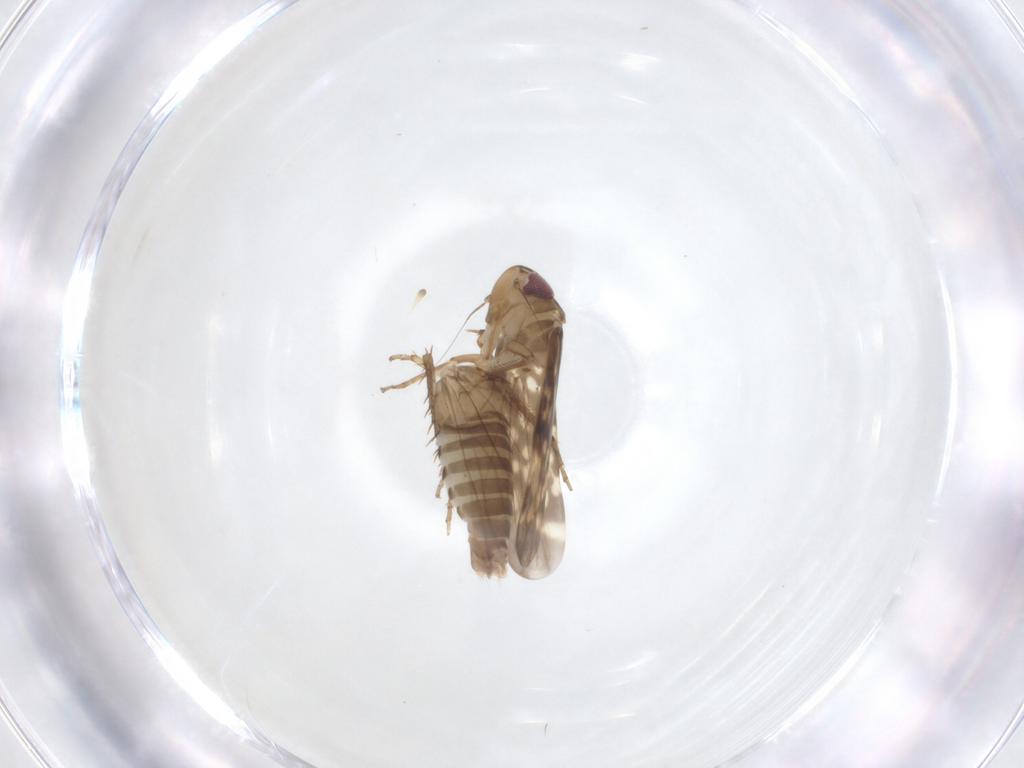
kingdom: Animalia
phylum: Arthropoda
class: Insecta
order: Hemiptera
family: Cicadellidae
